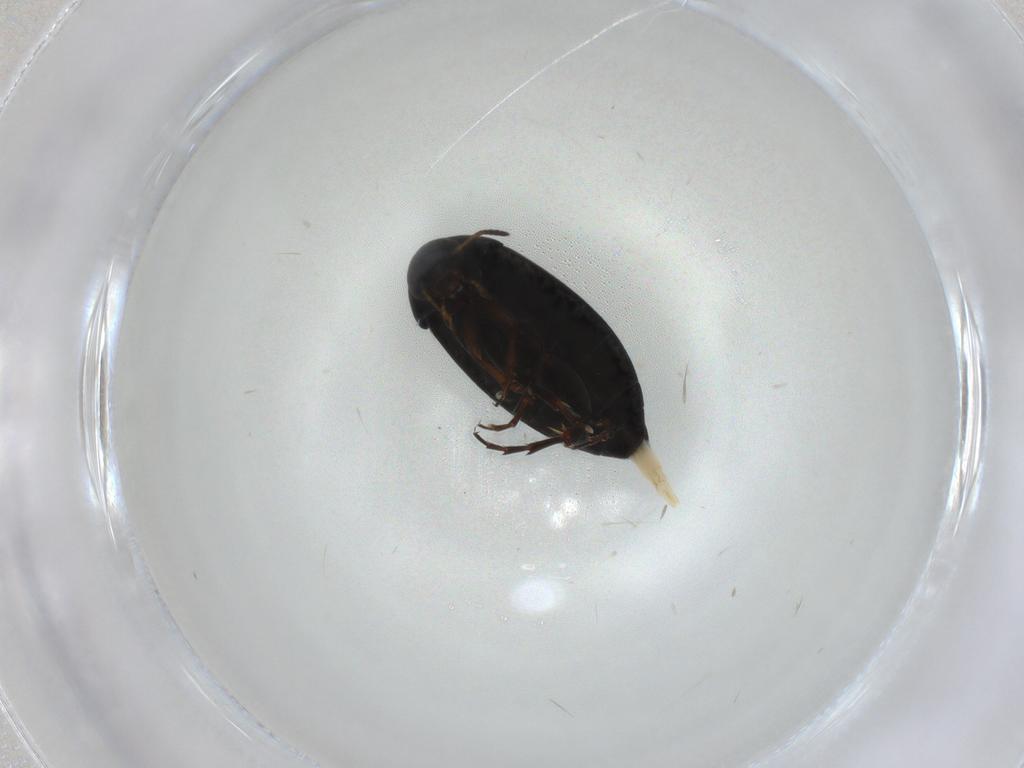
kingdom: Animalia
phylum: Arthropoda
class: Insecta
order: Coleoptera
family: Scraptiidae
